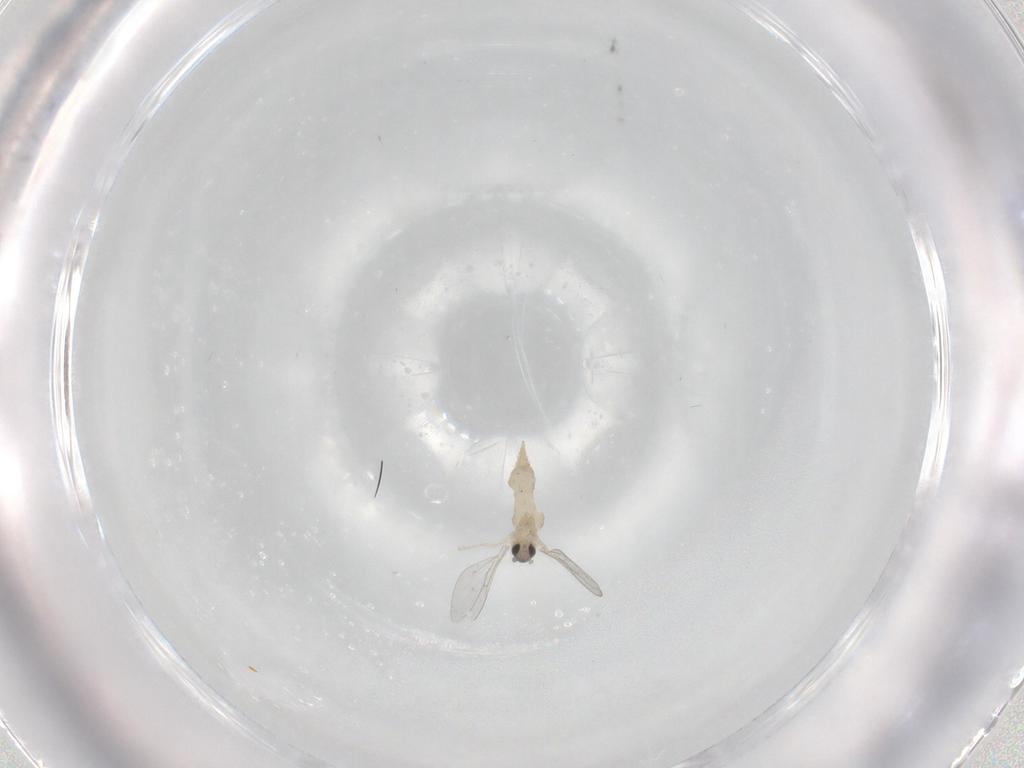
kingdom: Animalia
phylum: Arthropoda
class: Insecta
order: Diptera
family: Cecidomyiidae
